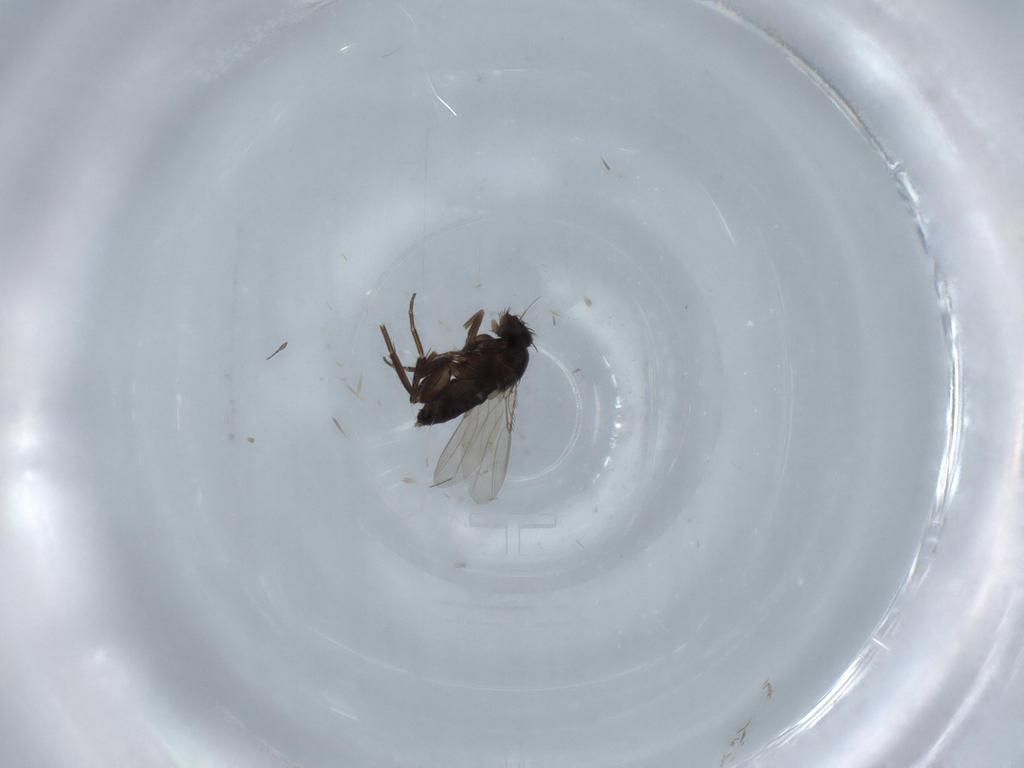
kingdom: Animalia
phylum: Arthropoda
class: Insecta
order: Diptera
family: Phoridae
